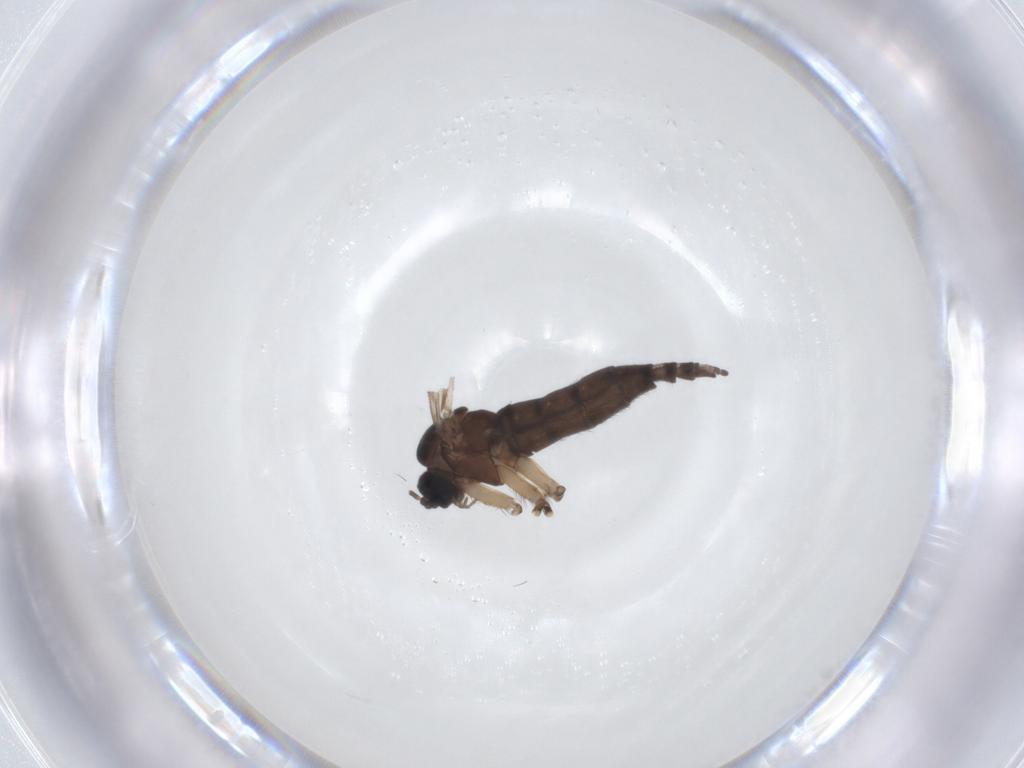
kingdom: Animalia
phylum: Arthropoda
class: Insecta
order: Diptera
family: Sciaridae
